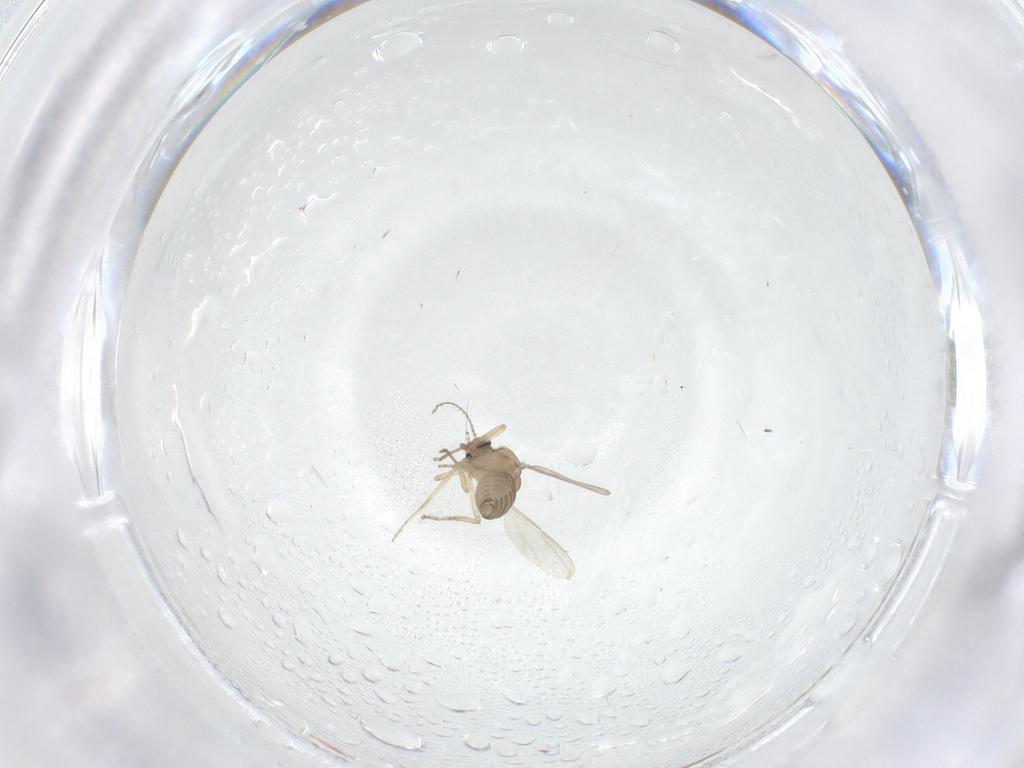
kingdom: Animalia
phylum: Arthropoda
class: Insecta
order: Diptera
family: Ceratopogonidae
